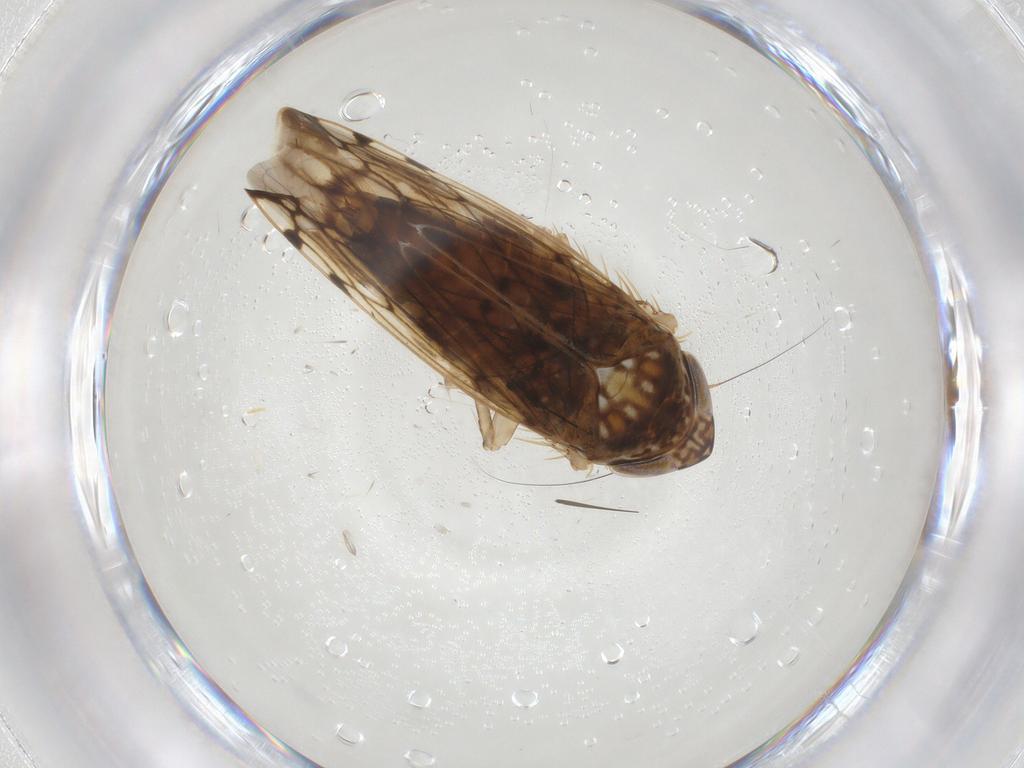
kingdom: Animalia
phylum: Arthropoda
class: Insecta
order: Hemiptera
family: Cicadellidae
